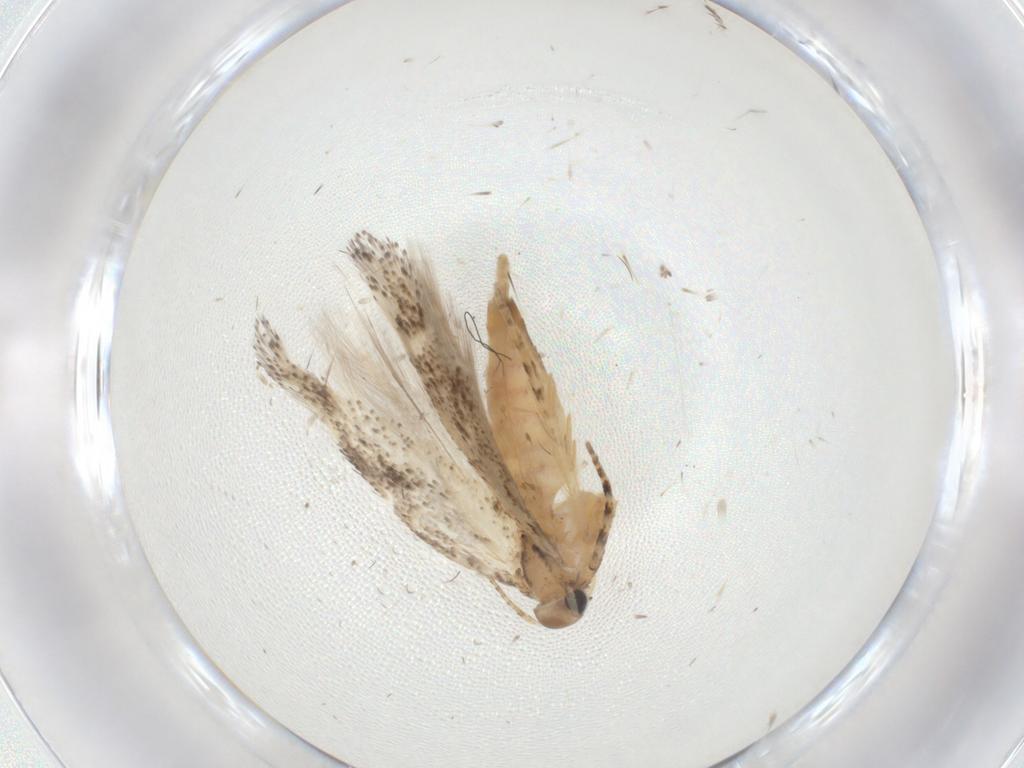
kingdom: Animalia
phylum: Arthropoda
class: Insecta
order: Lepidoptera
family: Gelechiidae
